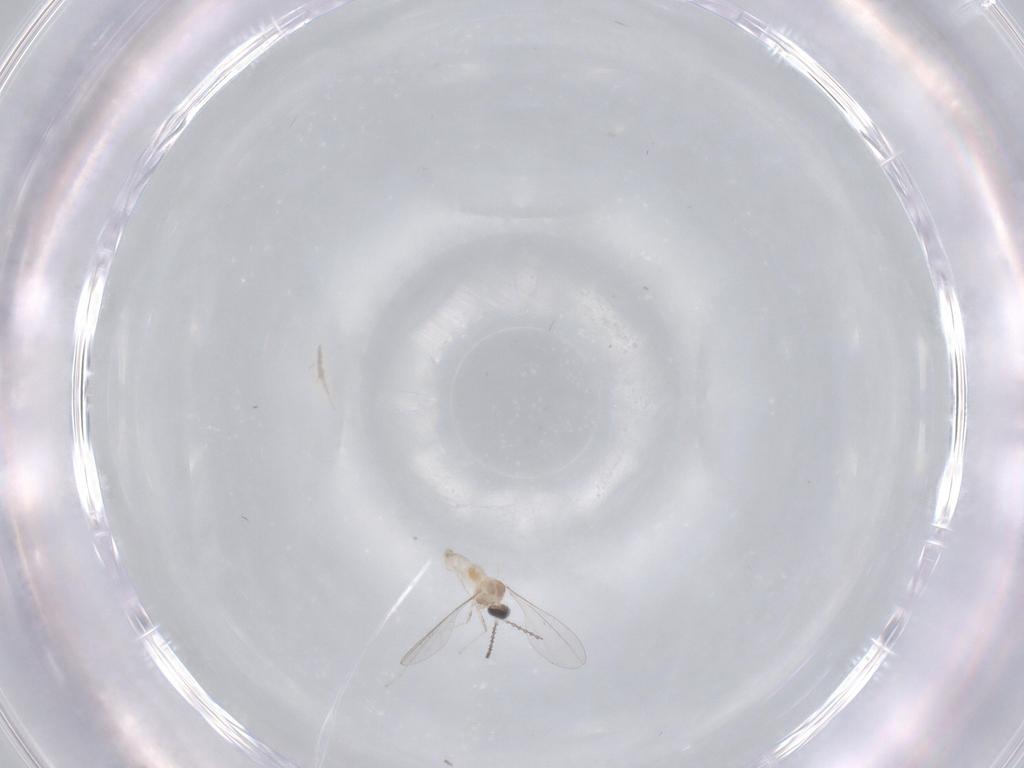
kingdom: Animalia
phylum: Arthropoda
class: Insecta
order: Diptera
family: Cecidomyiidae
